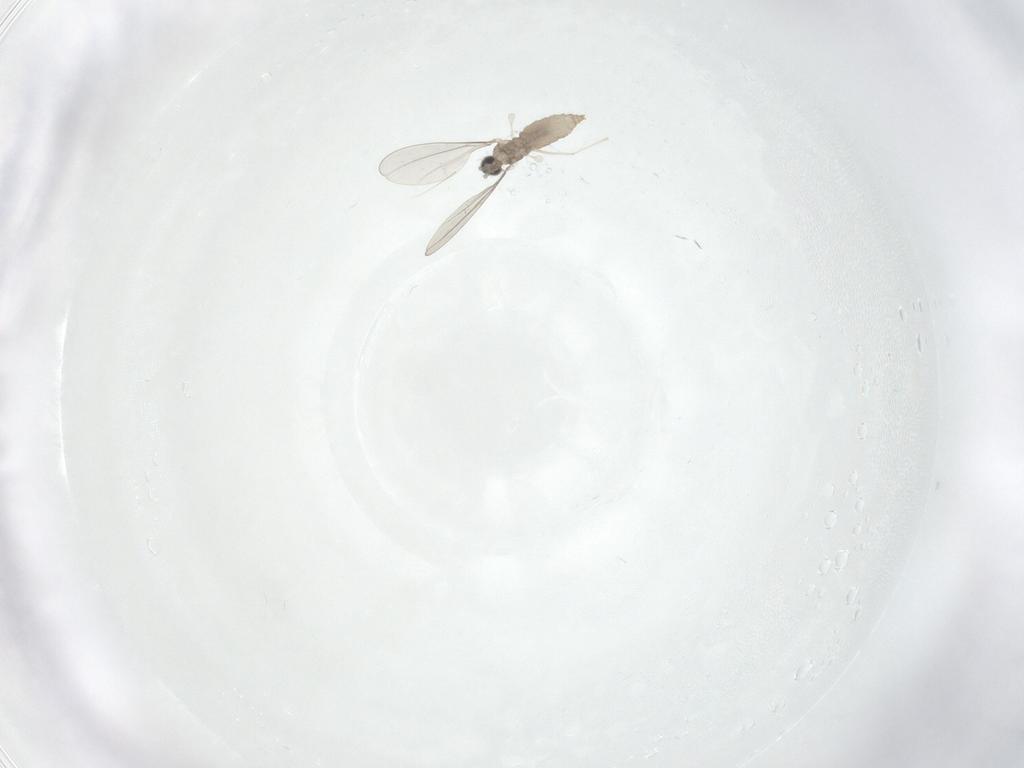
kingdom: Animalia
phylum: Arthropoda
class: Insecta
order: Diptera
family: Cecidomyiidae
